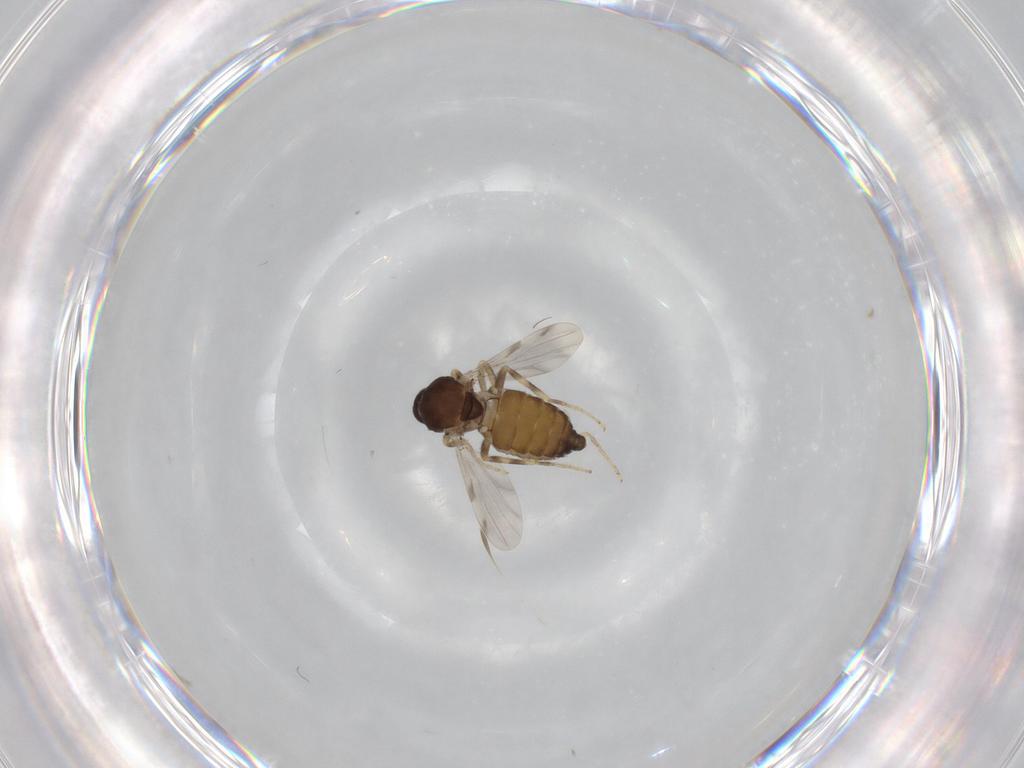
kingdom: Animalia
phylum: Arthropoda
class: Insecta
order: Diptera
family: Ceratopogonidae
